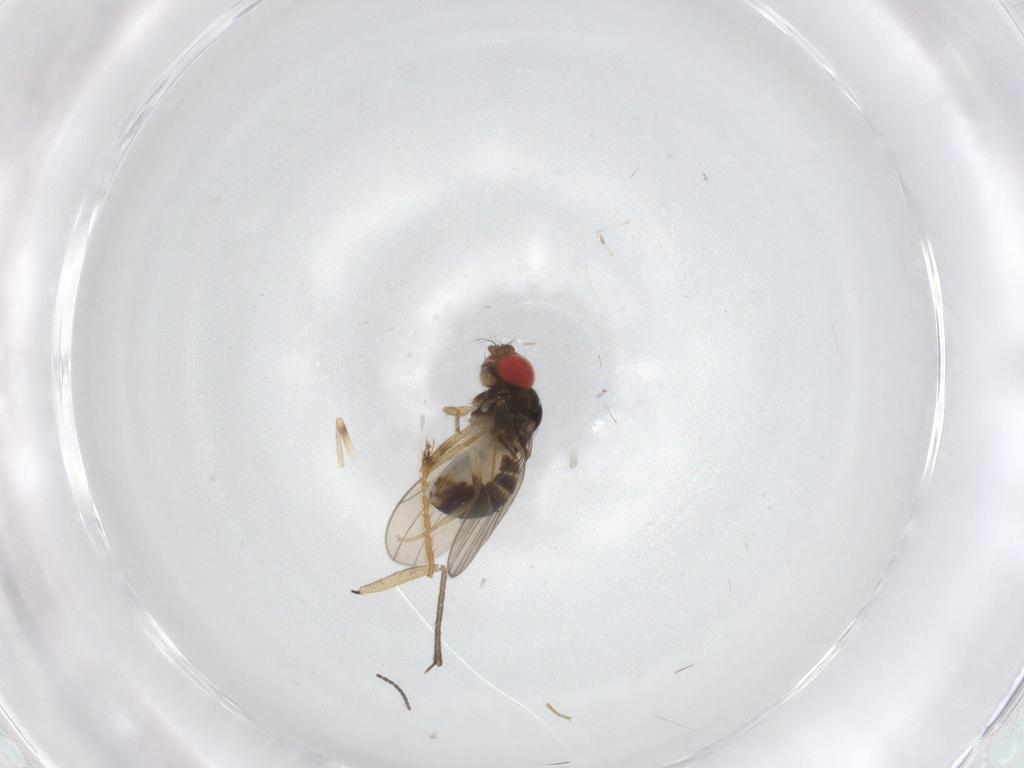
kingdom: Animalia
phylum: Arthropoda
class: Insecta
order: Diptera
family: Drosophilidae
